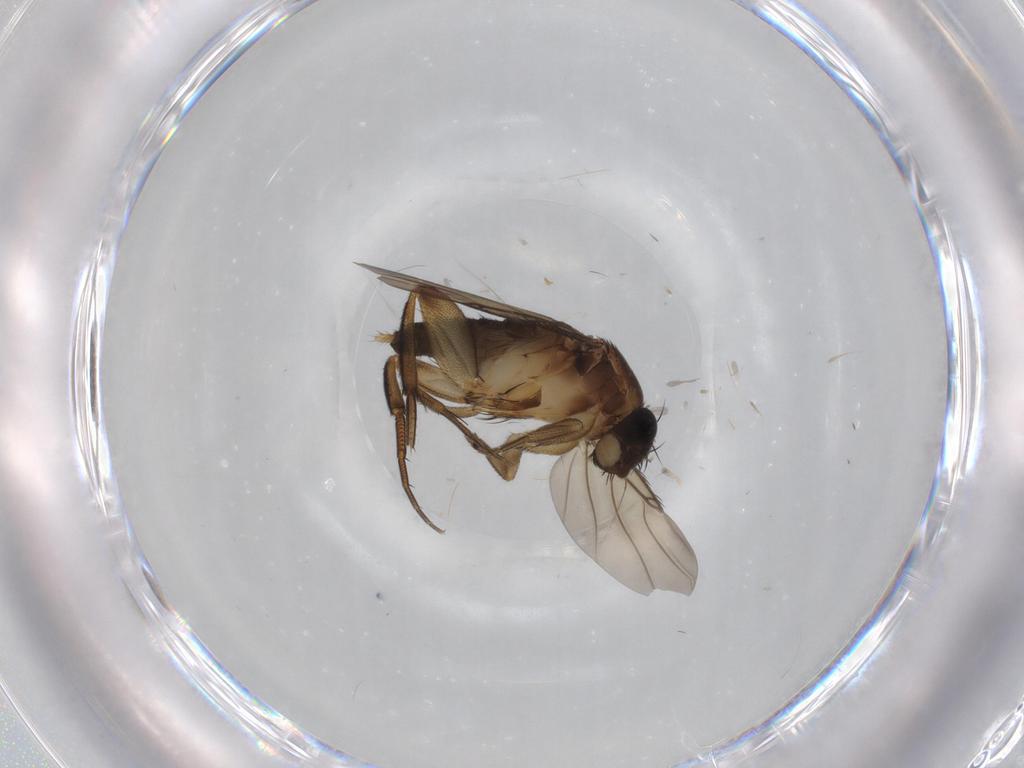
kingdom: Animalia
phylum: Arthropoda
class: Insecta
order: Diptera
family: Phoridae
